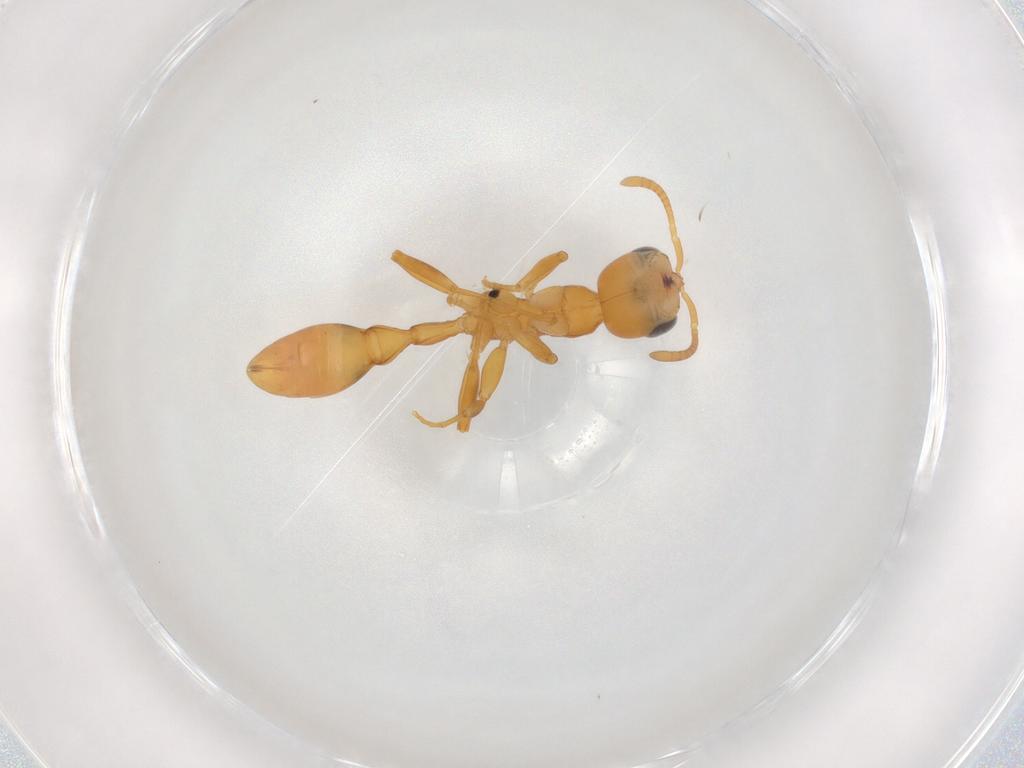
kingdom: Animalia
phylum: Arthropoda
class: Insecta
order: Hymenoptera
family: Formicidae
